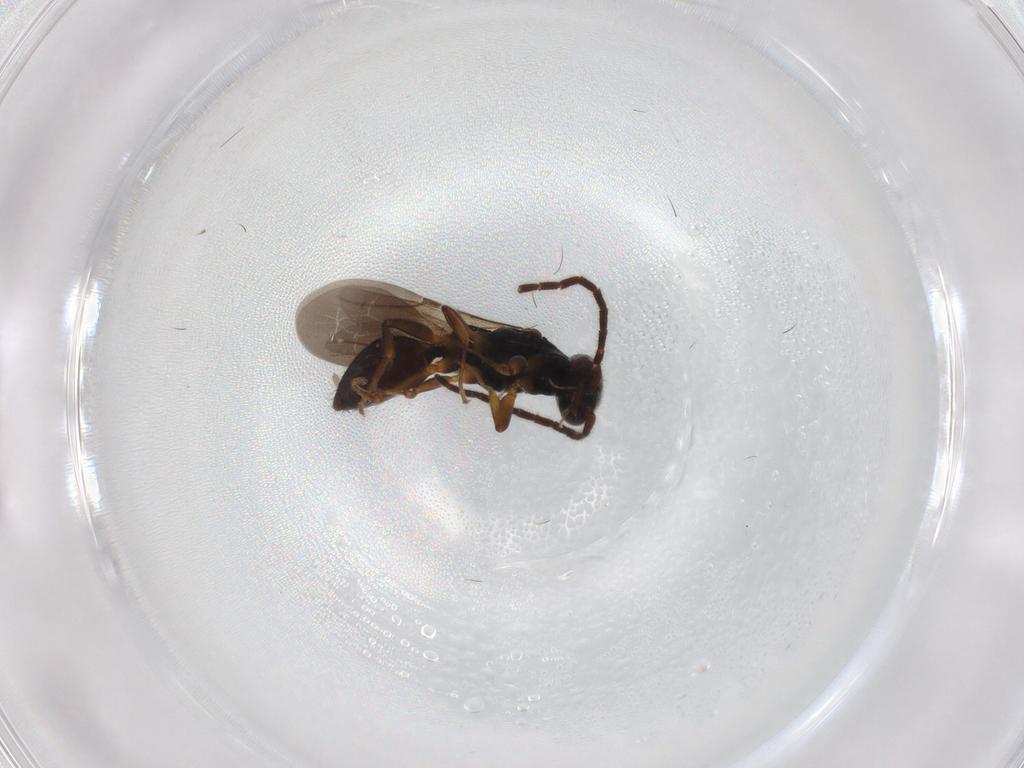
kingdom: Animalia
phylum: Arthropoda
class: Insecta
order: Hymenoptera
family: Bethylidae
